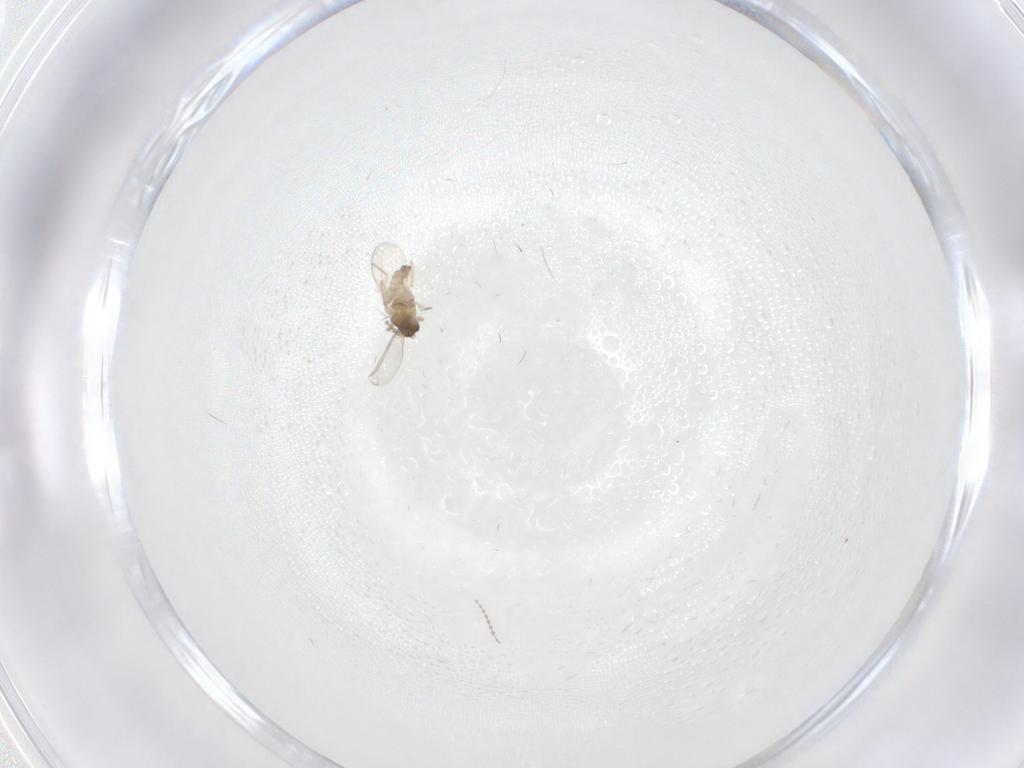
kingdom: Animalia
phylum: Arthropoda
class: Insecta
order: Diptera
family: Cecidomyiidae
